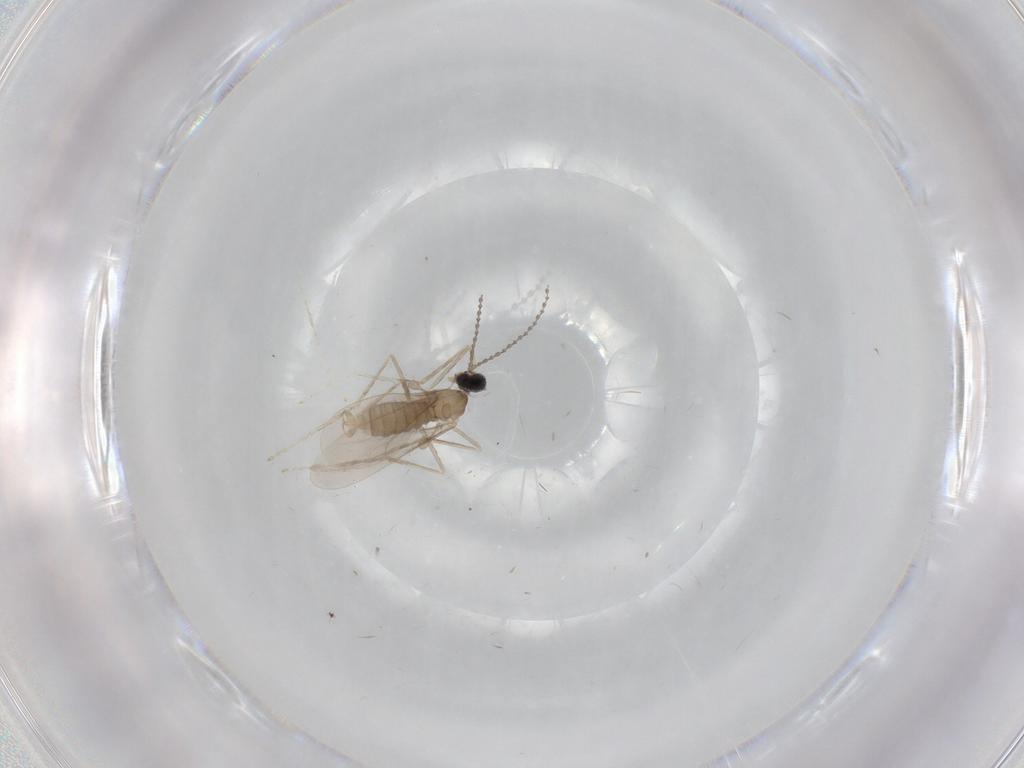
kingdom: Animalia
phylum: Arthropoda
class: Insecta
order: Diptera
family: Cecidomyiidae
